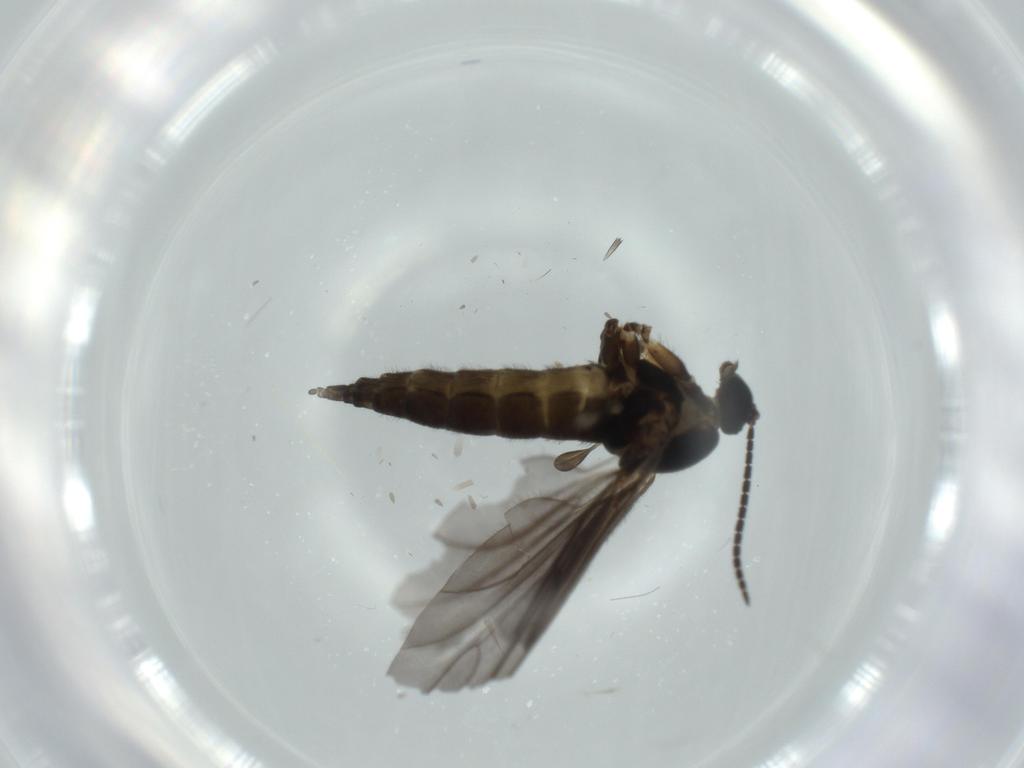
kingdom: Animalia
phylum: Arthropoda
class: Insecta
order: Diptera
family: Sciaridae
